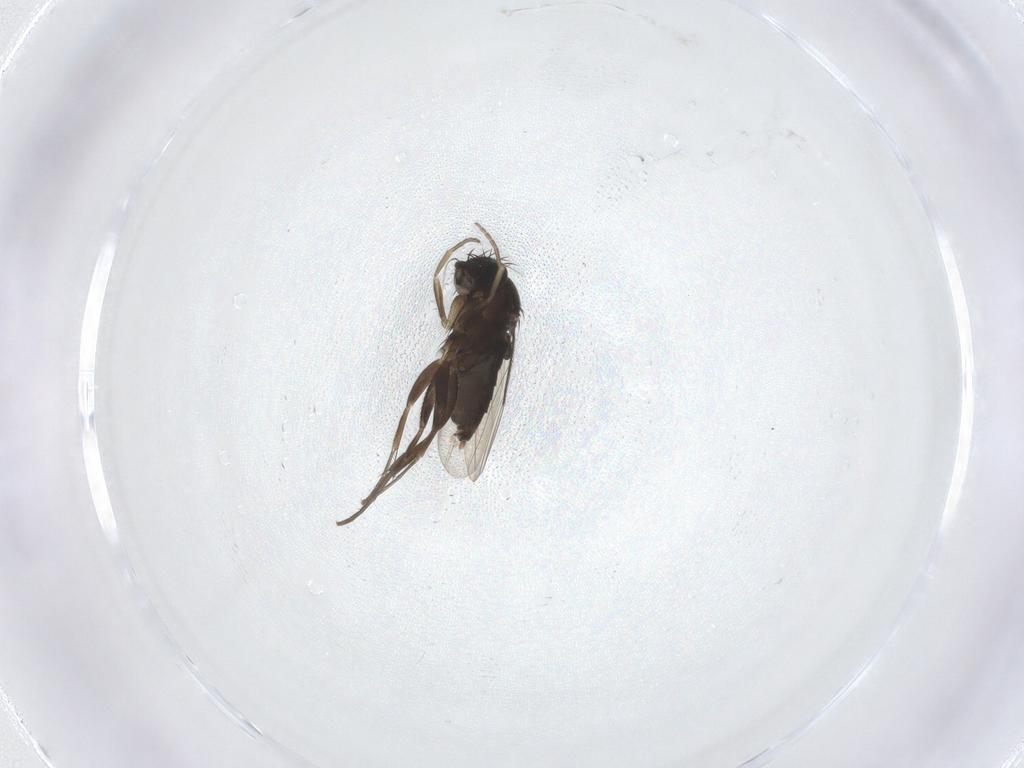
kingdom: Animalia
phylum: Arthropoda
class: Insecta
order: Diptera
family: Phoridae
